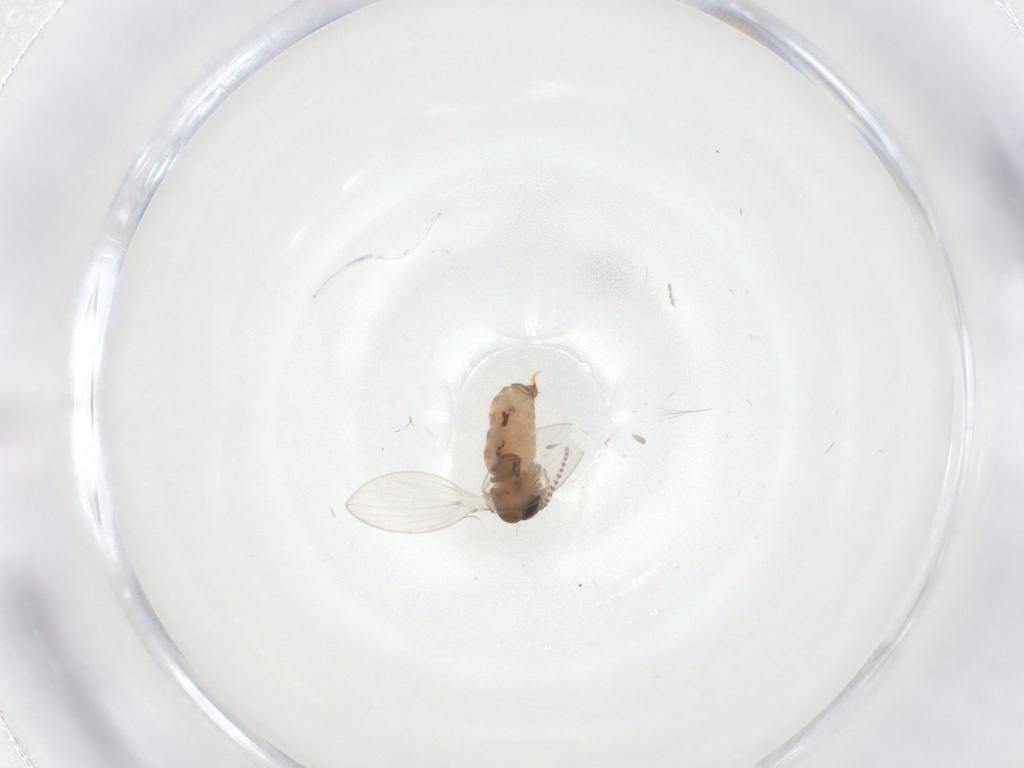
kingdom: Animalia
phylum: Arthropoda
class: Insecta
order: Diptera
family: Psychodidae
